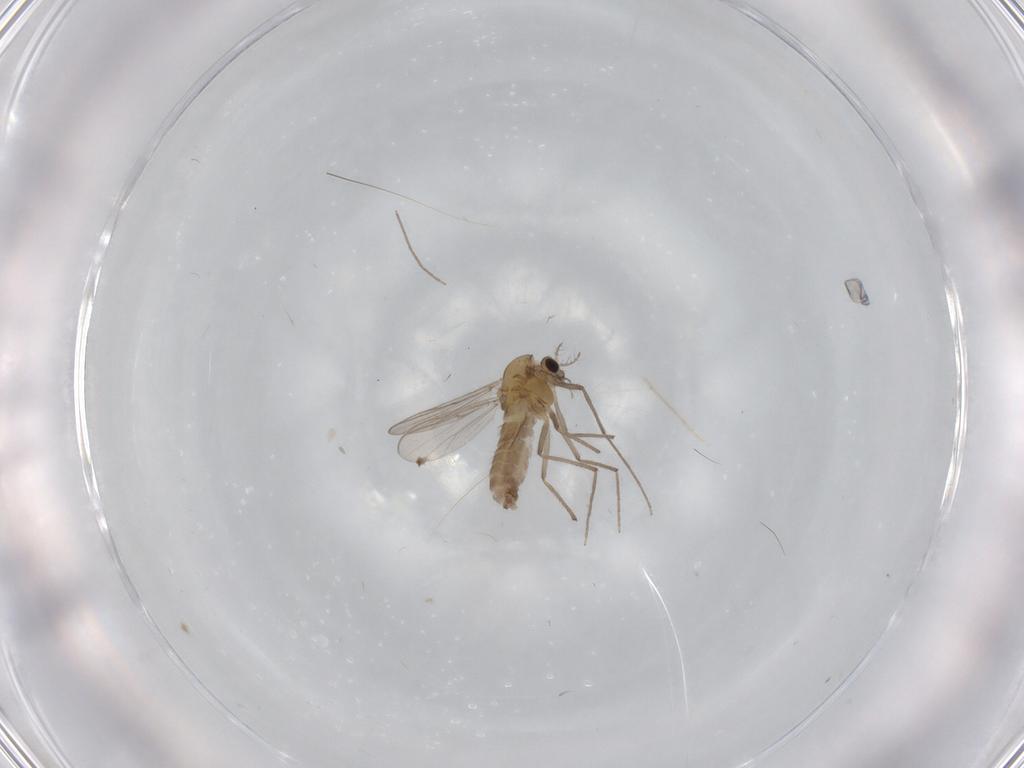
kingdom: Animalia
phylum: Arthropoda
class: Insecta
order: Diptera
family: Chironomidae
